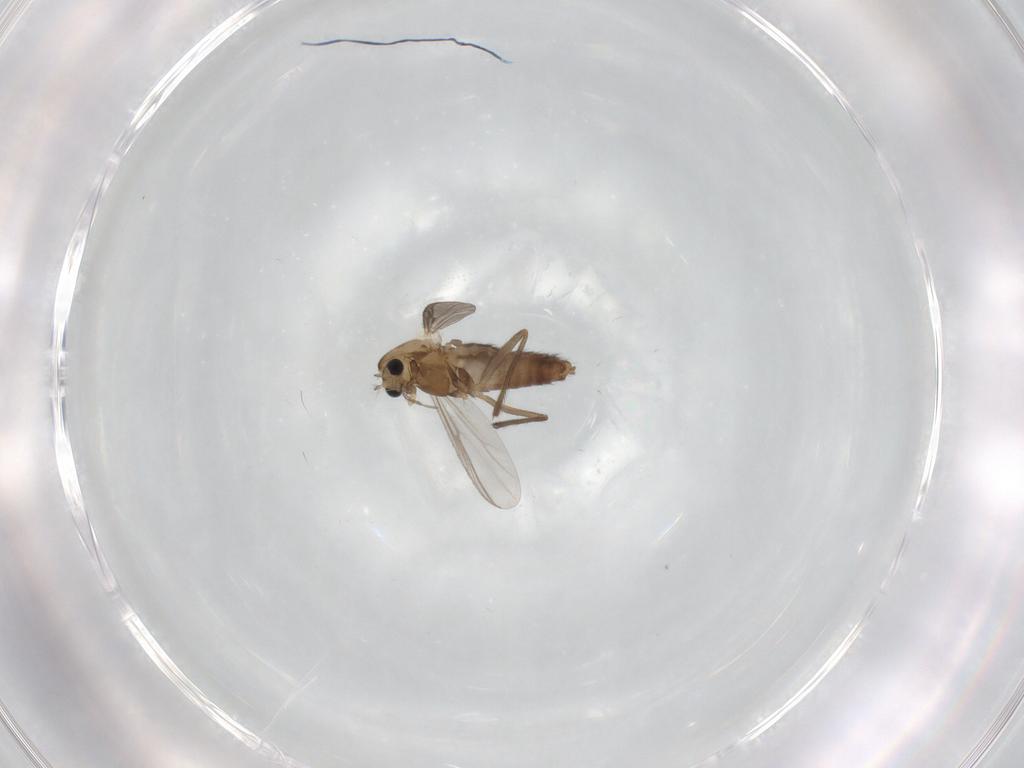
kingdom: Animalia
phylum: Arthropoda
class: Insecta
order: Diptera
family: Chironomidae
